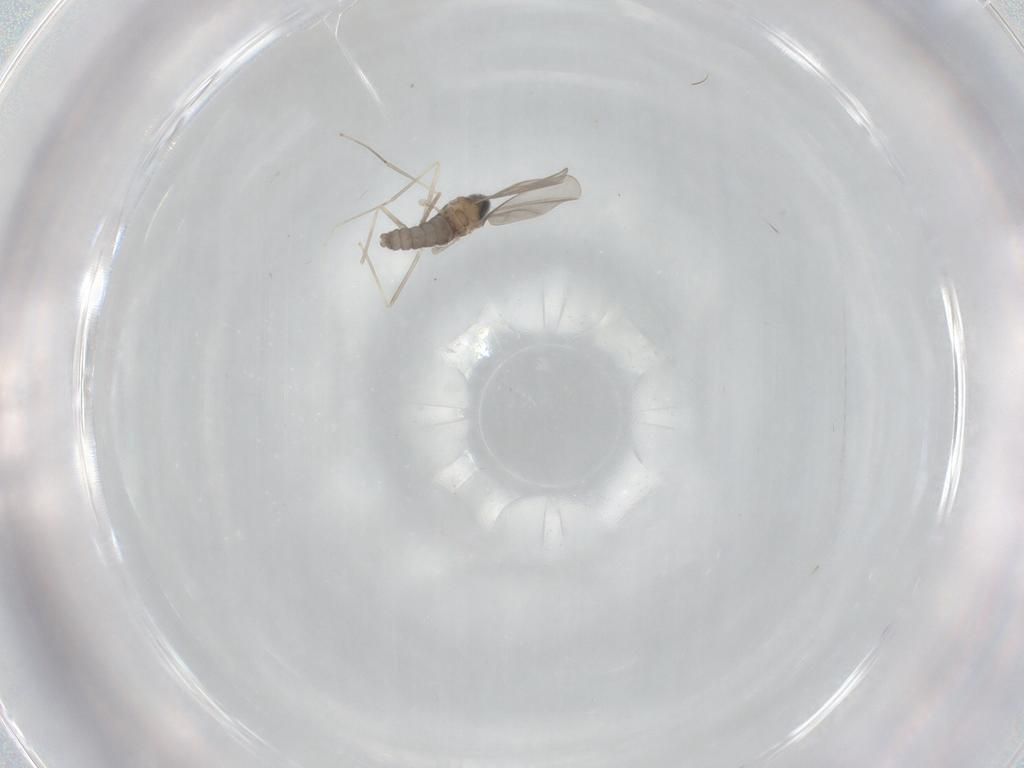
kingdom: Animalia
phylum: Arthropoda
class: Insecta
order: Diptera
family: Cecidomyiidae
